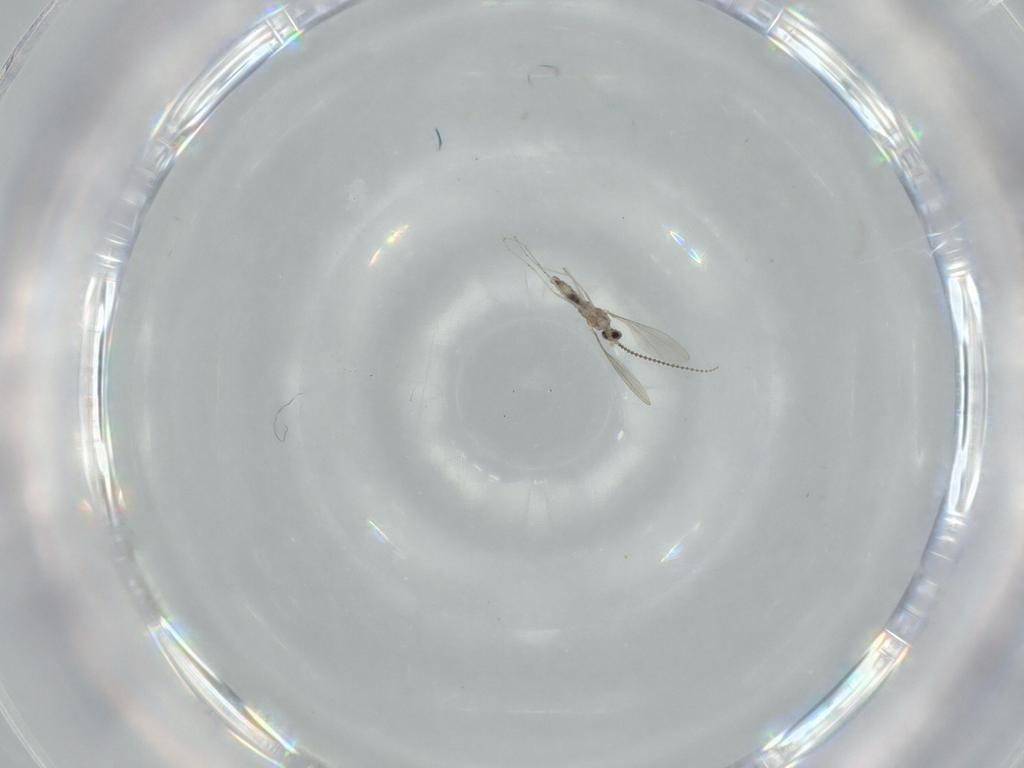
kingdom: Animalia
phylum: Arthropoda
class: Insecta
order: Diptera
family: Cecidomyiidae
